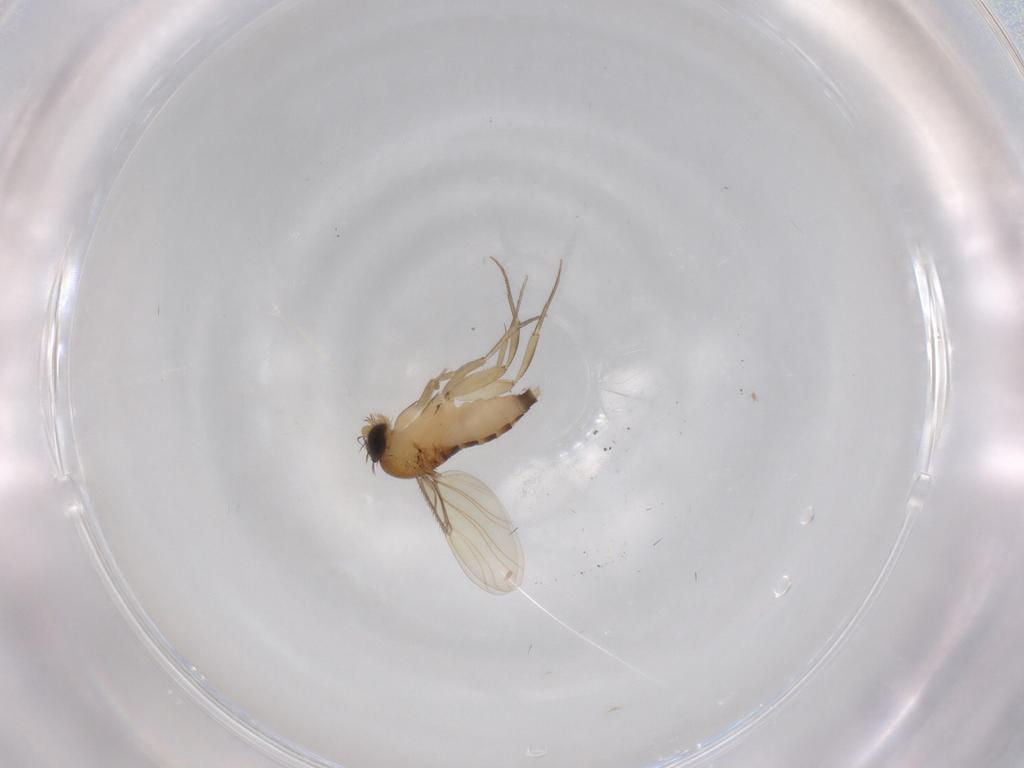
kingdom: Animalia
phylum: Arthropoda
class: Insecta
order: Diptera
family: Phoridae
